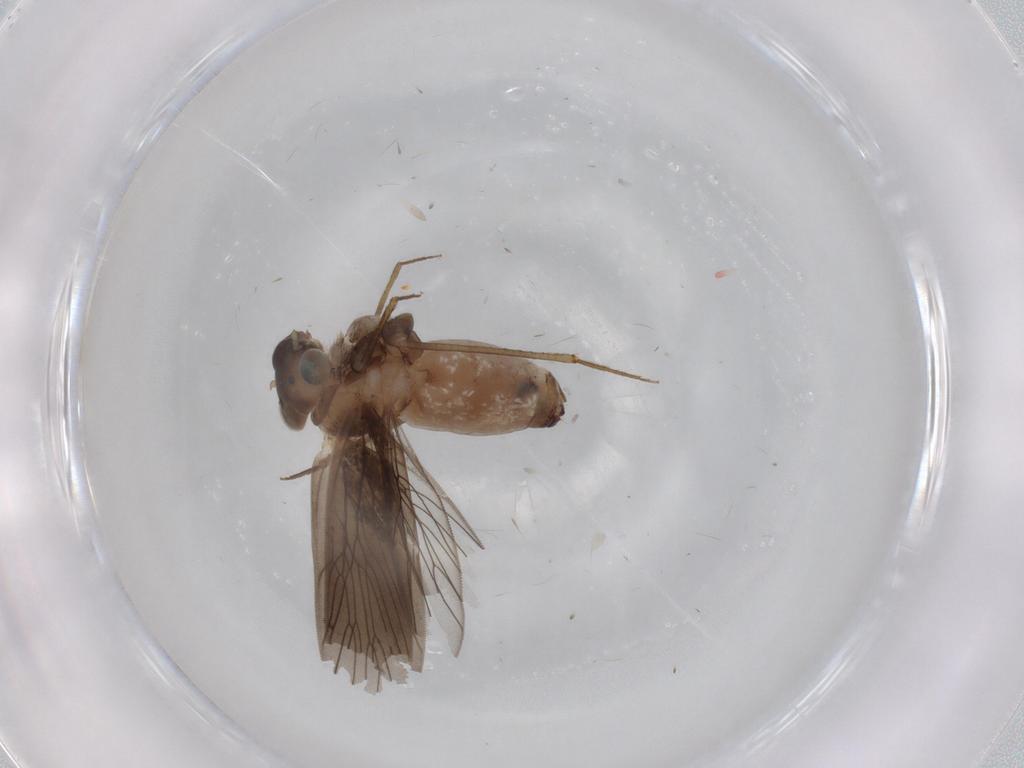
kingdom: Animalia
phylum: Arthropoda
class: Insecta
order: Psocodea
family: Lepidopsocidae
